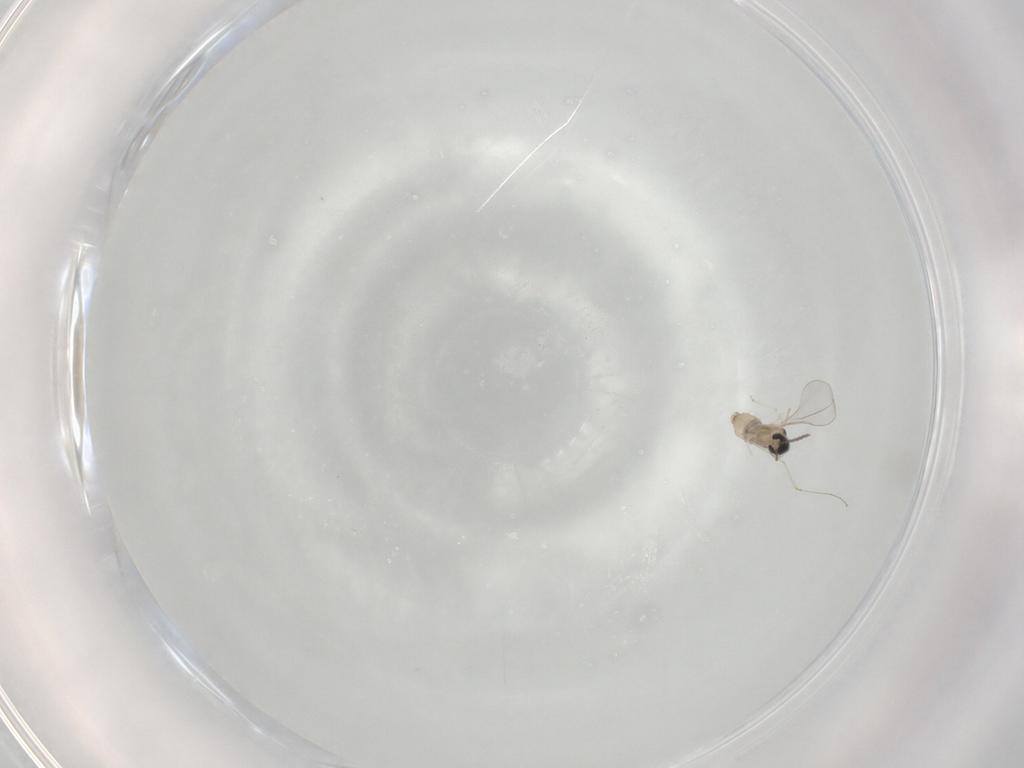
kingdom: Animalia
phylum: Arthropoda
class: Insecta
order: Diptera
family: Cecidomyiidae
